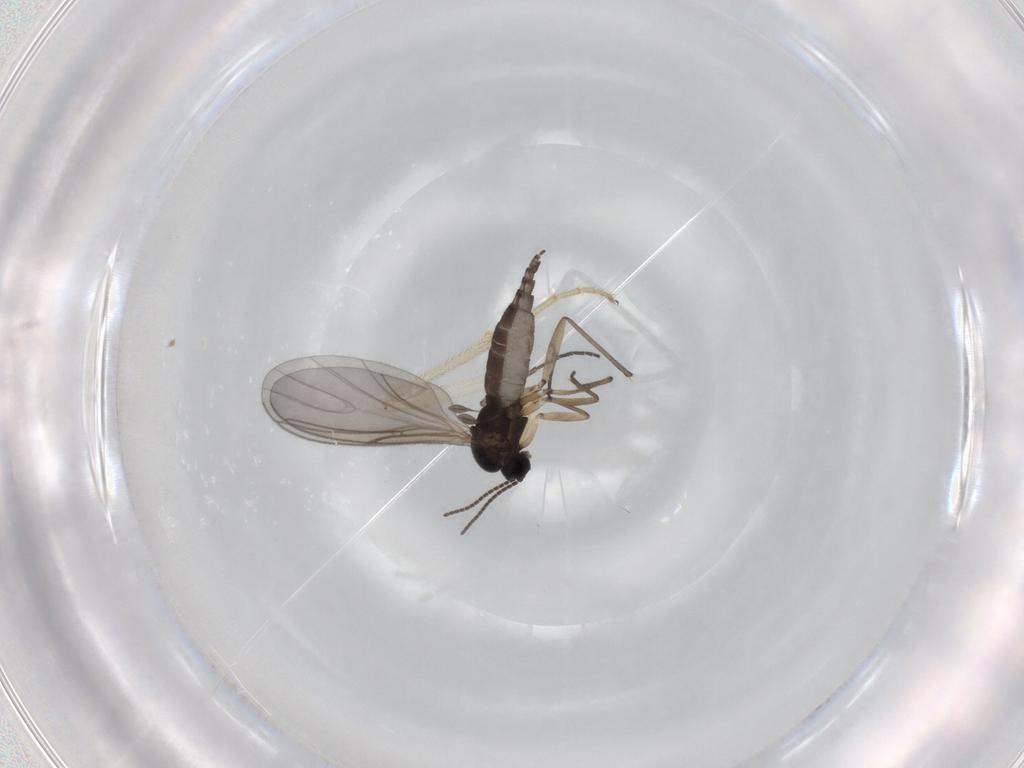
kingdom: Animalia
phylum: Arthropoda
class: Insecta
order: Diptera
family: Sciaridae
